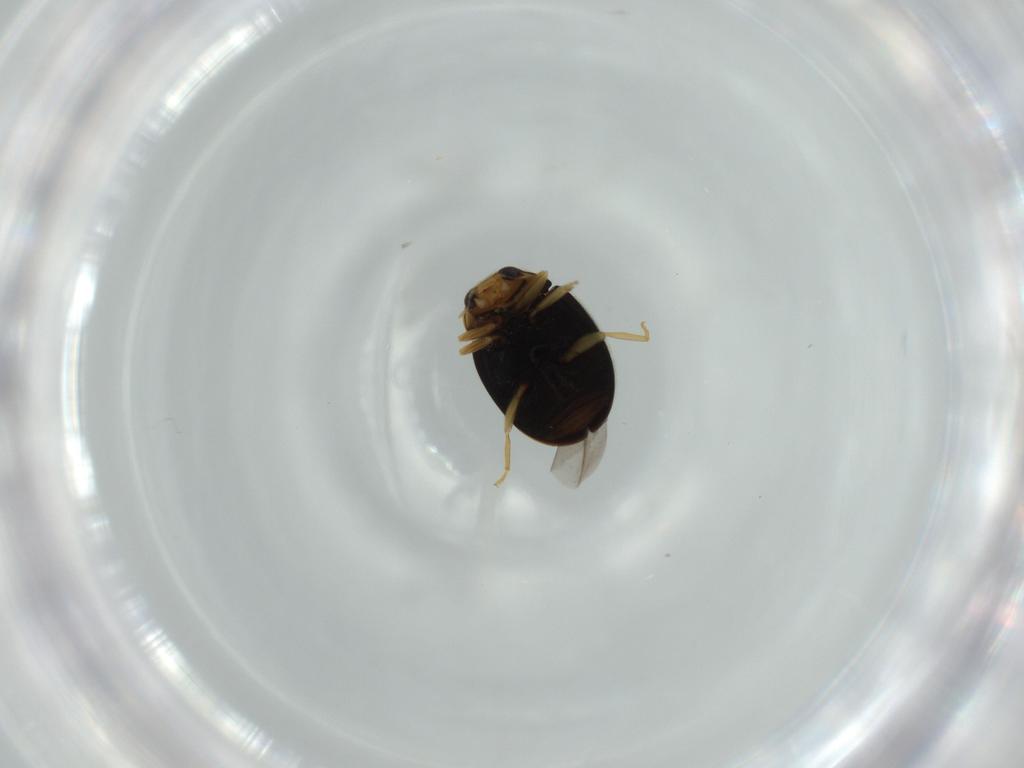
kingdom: Animalia
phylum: Arthropoda
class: Insecta
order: Coleoptera
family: Coccinellidae
